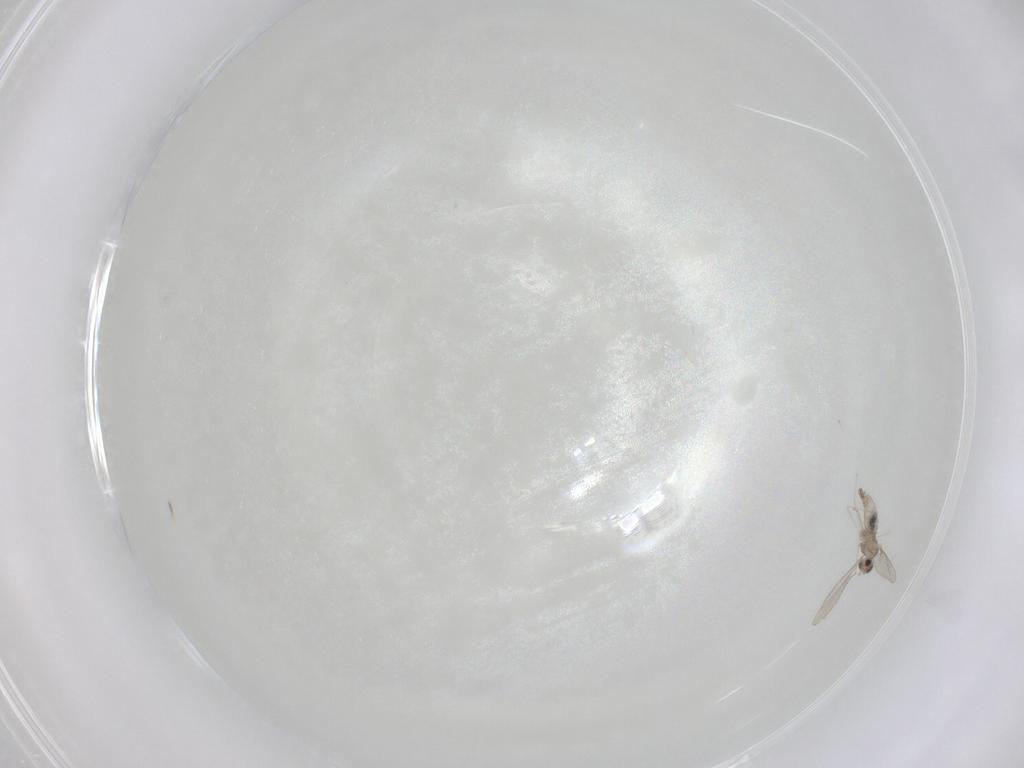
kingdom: Animalia
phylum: Arthropoda
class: Insecta
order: Diptera
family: Cecidomyiidae
